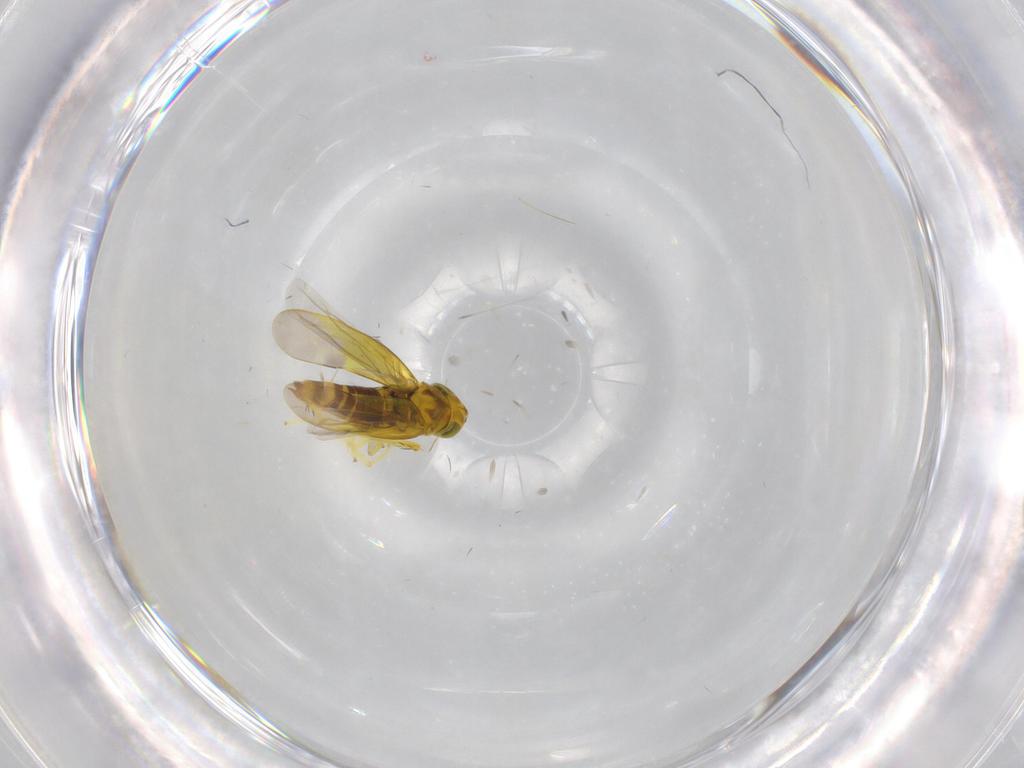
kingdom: Animalia
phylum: Arthropoda
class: Insecta
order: Hemiptera
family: Cicadellidae
